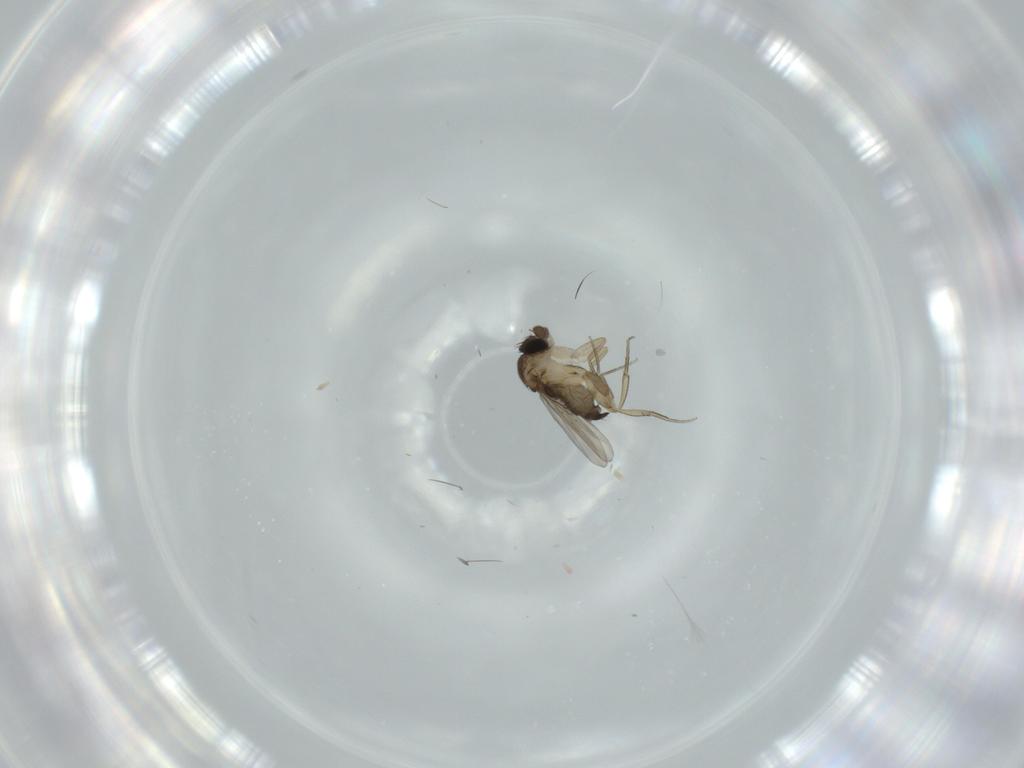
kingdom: Animalia
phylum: Arthropoda
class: Insecta
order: Diptera
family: Phoridae
